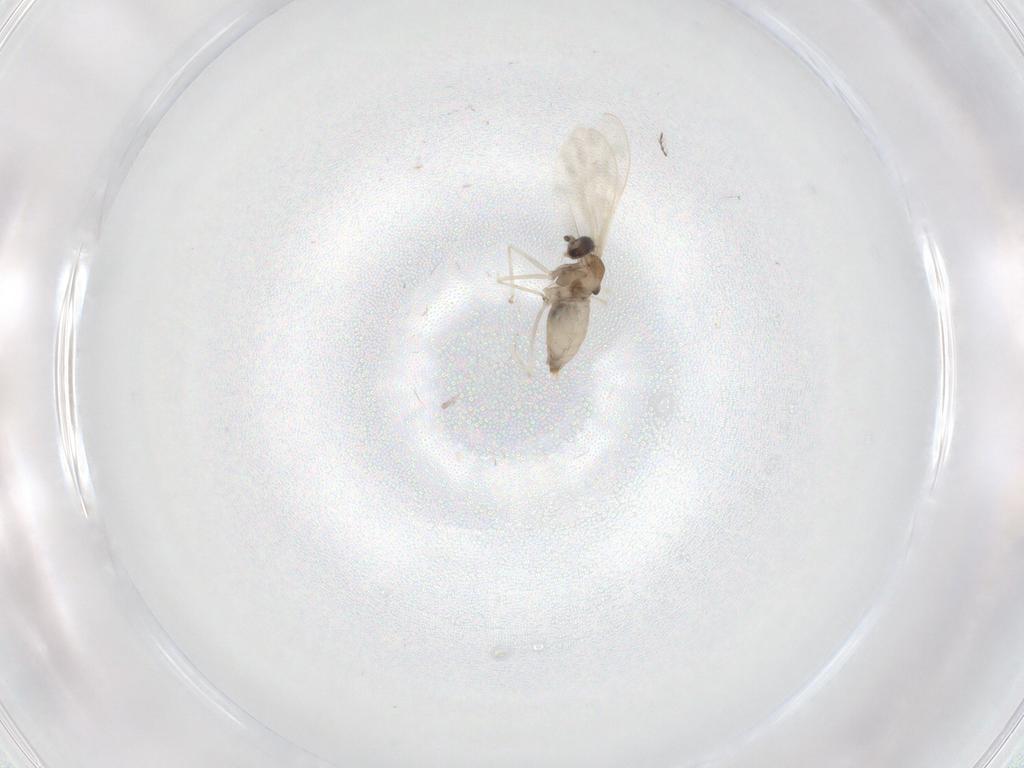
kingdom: Animalia
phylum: Arthropoda
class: Insecta
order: Diptera
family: Cecidomyiidae
